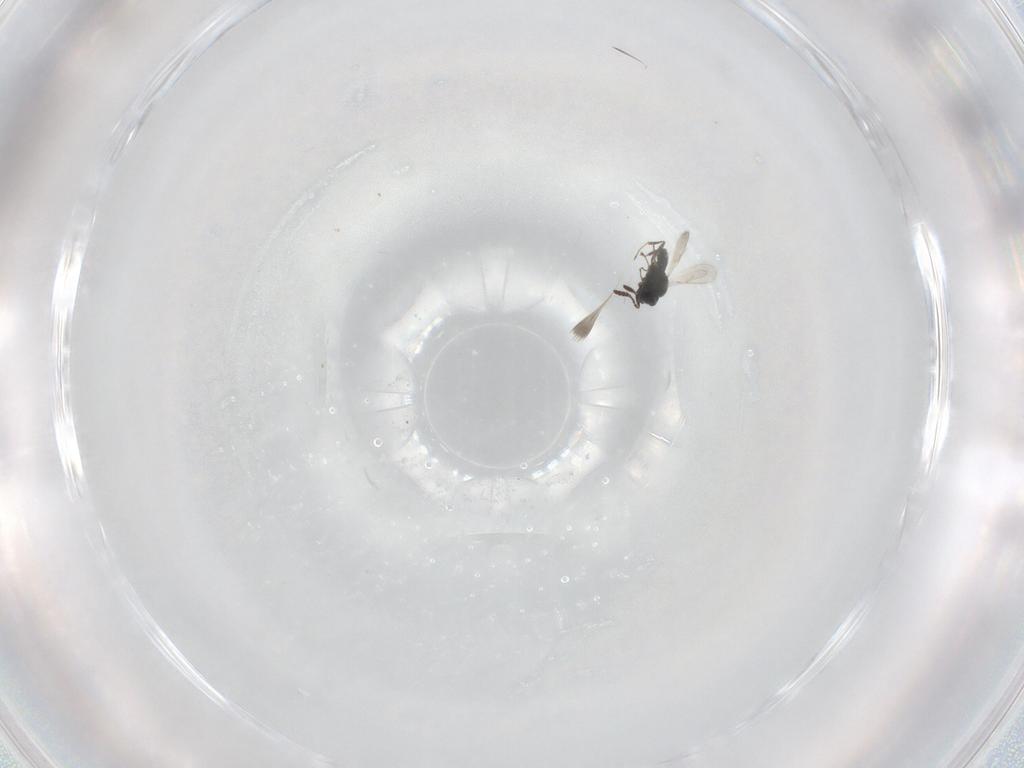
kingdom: Animalia
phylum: Arthropoda
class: Insecta
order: Hymenoptera
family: Scelionidae
